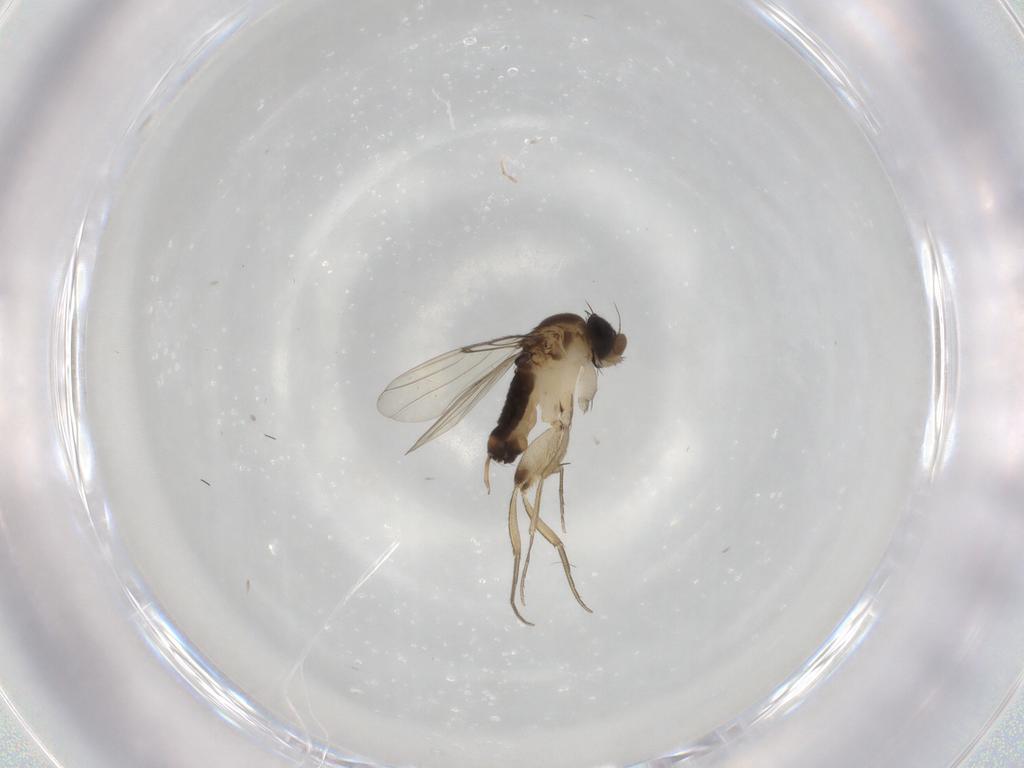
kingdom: Animalia
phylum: Arthropoda
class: Insecta
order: Diptera
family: Phoridae
